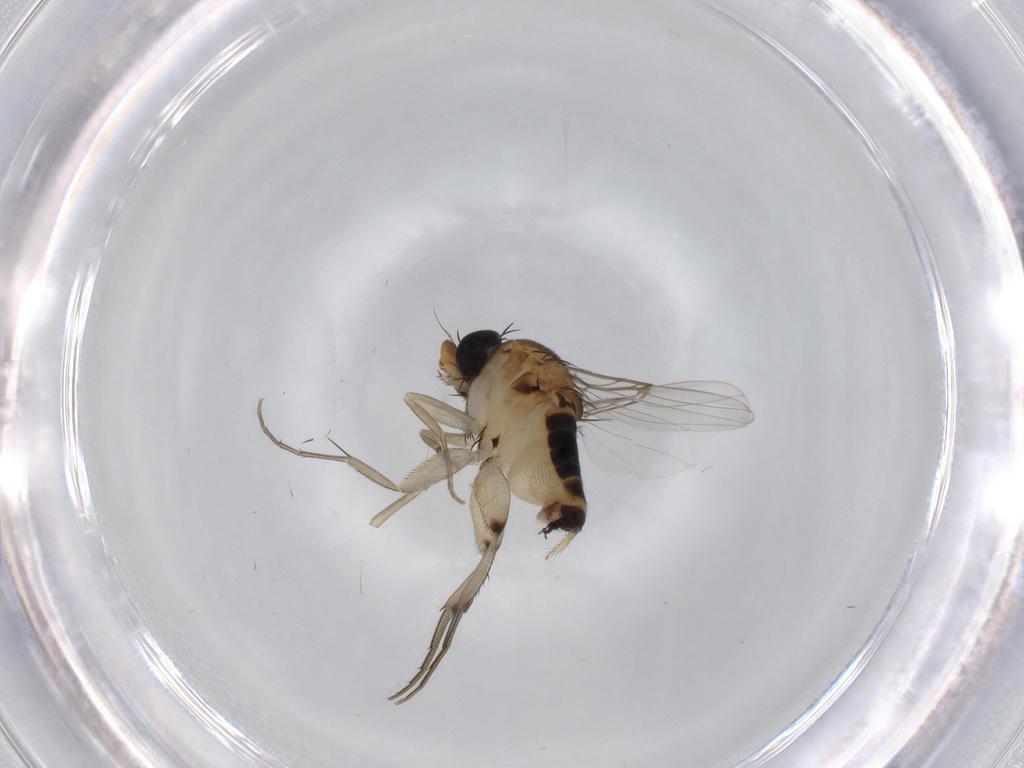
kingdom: Animalia
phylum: Arthropoda
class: Insecta
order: Diptera
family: Phoridae
